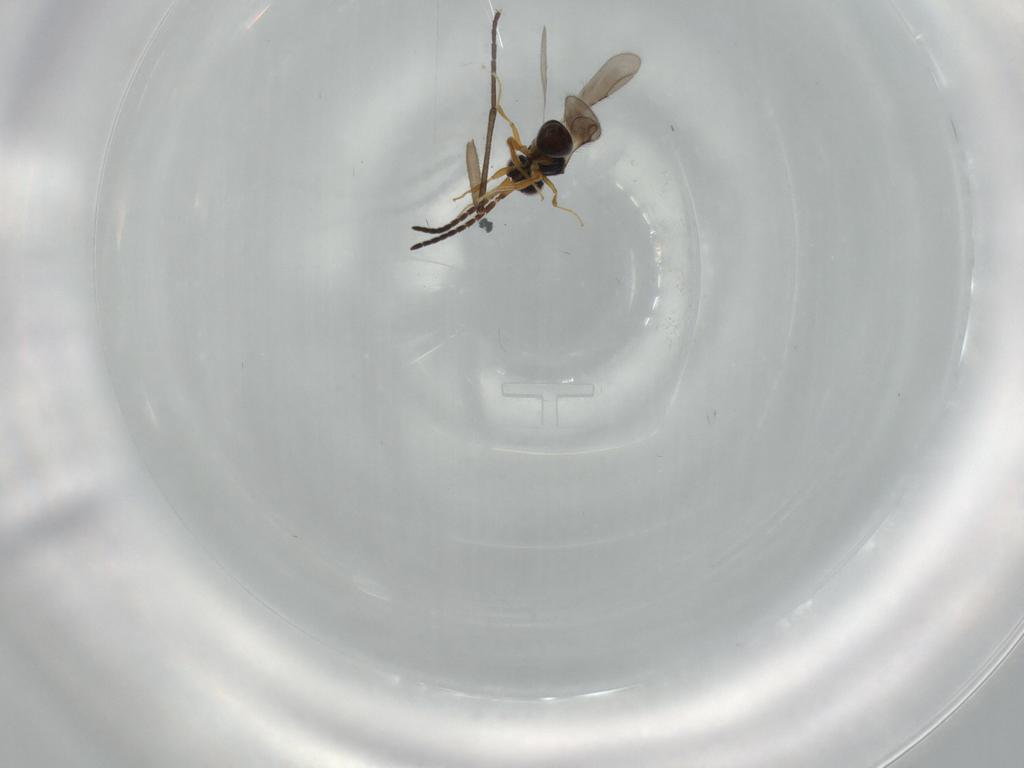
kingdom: Animalia
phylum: Arthropoda
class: Insecta
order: Hymenoptera
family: Ceraphronidae
